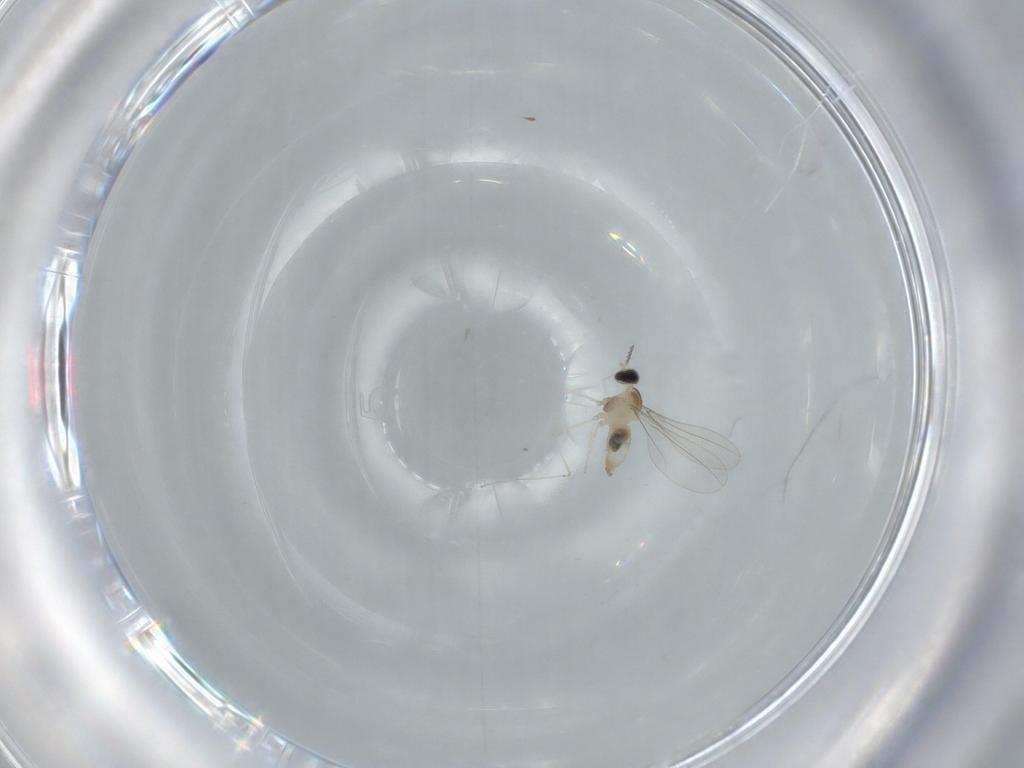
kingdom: Animalia
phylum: Arthropoda
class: Insecta
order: Diptera
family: Cecidomyiidae
